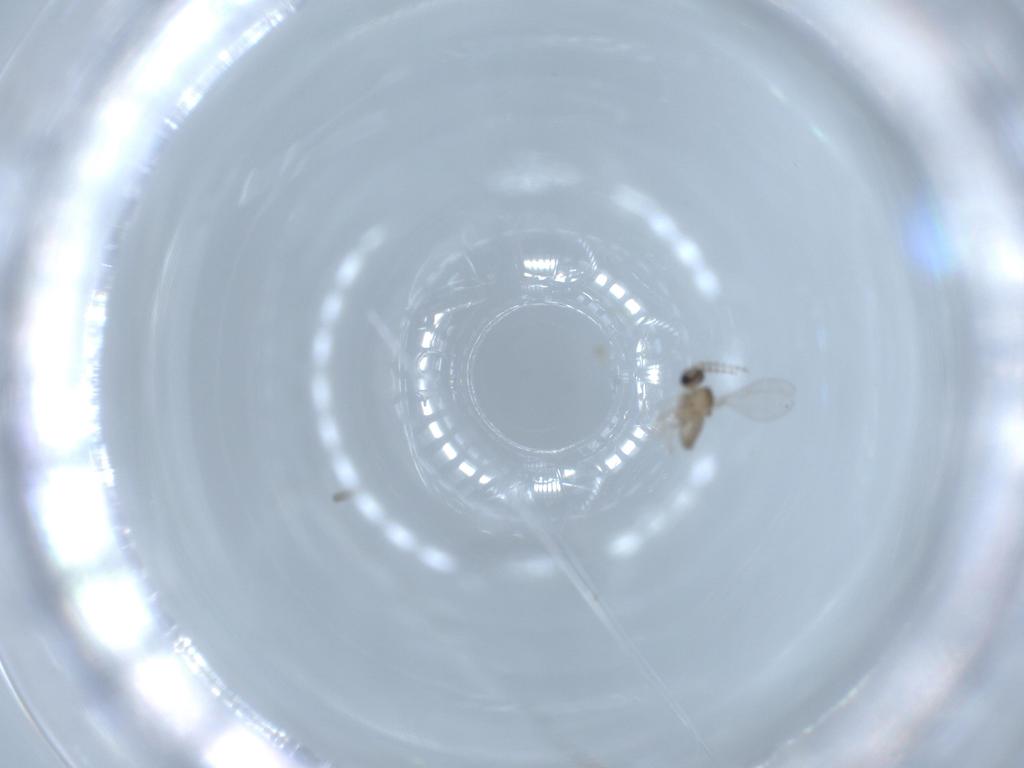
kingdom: Animalia
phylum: Arthropoda
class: Insecta
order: Diptera
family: Cecidomyiidae
